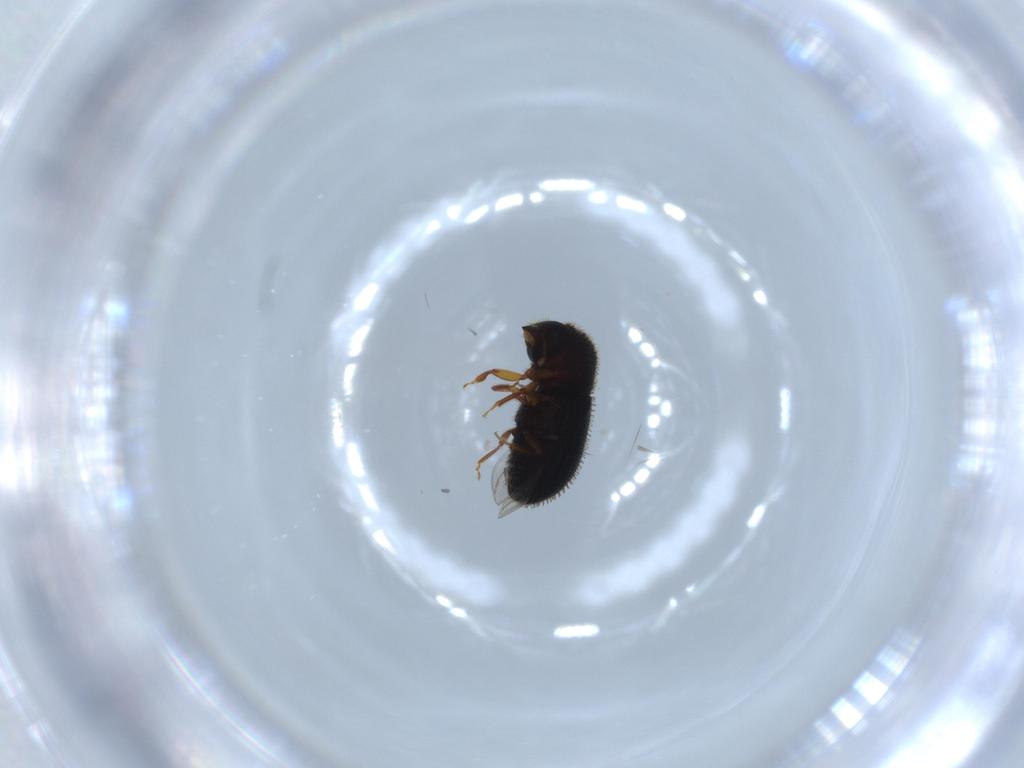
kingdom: Animalia
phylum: Arthropoda
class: Insecta
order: Coleoptera
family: Curculionidae
